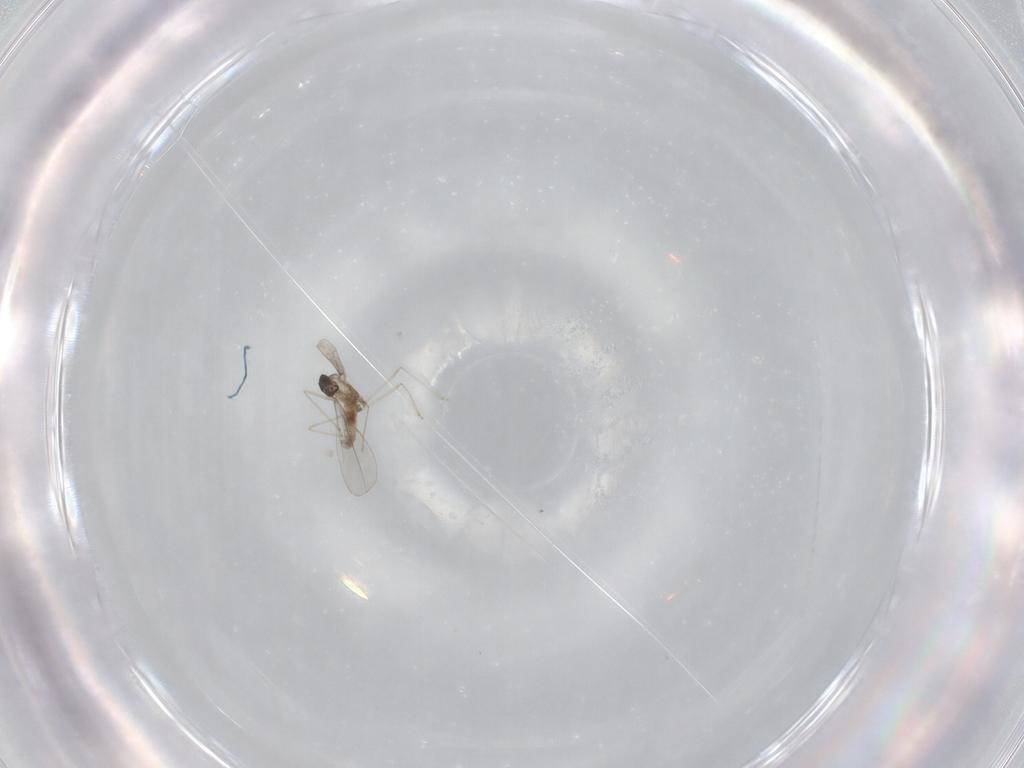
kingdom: Animalia
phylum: Arthropoda
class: Insecta
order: Diptera
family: Cecidomyiidae
